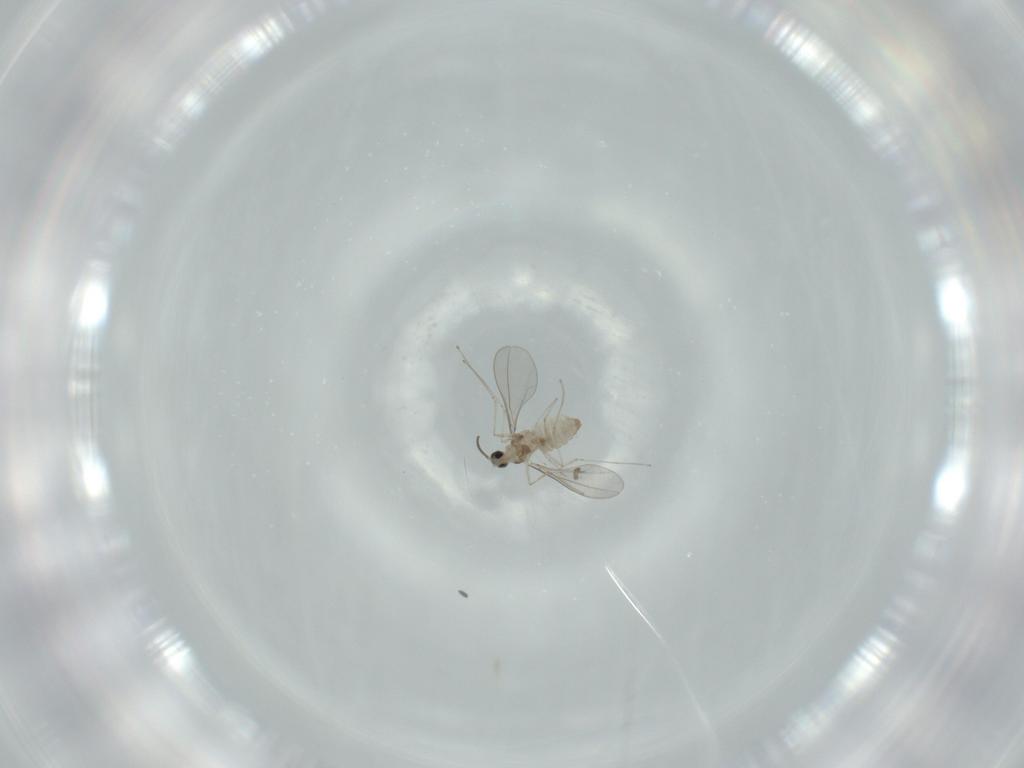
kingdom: Animalia
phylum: Arthropoda
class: Insecta
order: Diptera
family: Cecidomyiidae
